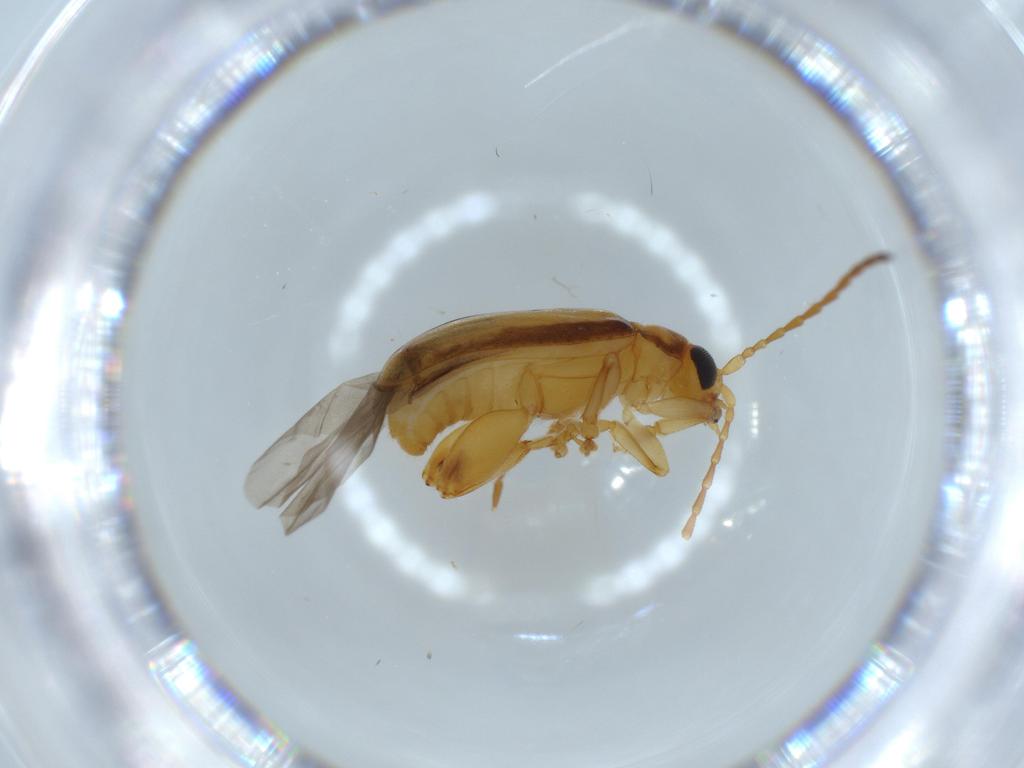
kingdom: Animalia
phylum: Arthropoda
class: Insecta
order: Coleoptera
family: Chrysomelidae
